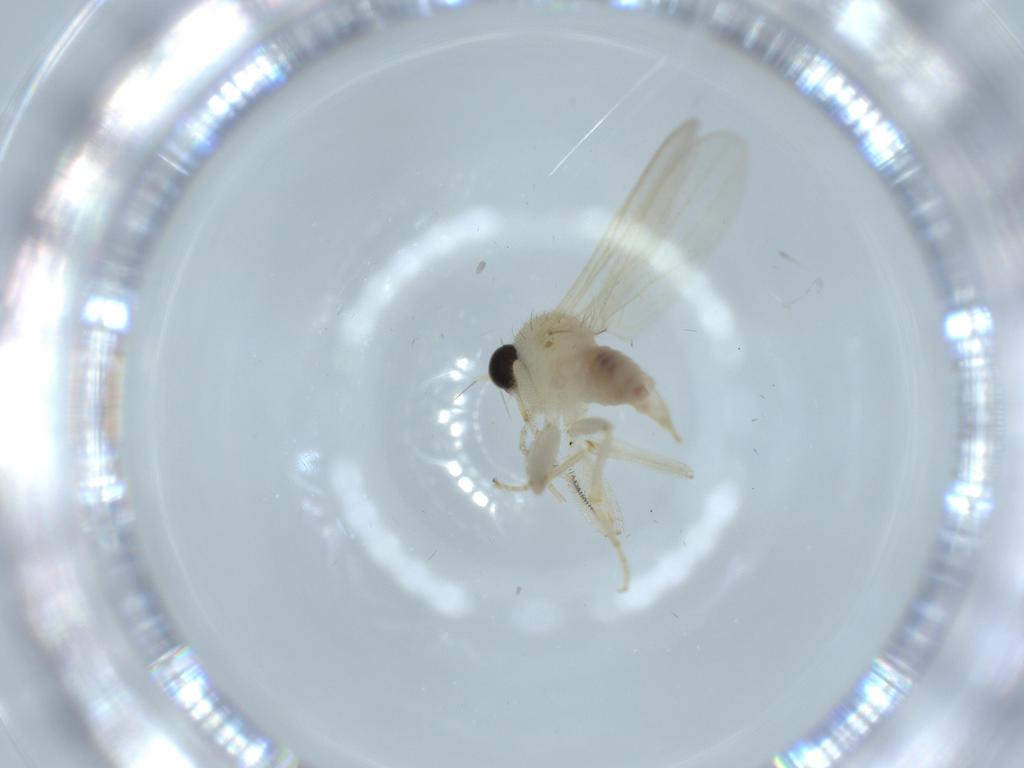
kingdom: Animalia
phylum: Arthropoda
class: Insecta
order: Diptera
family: Hybotidae
